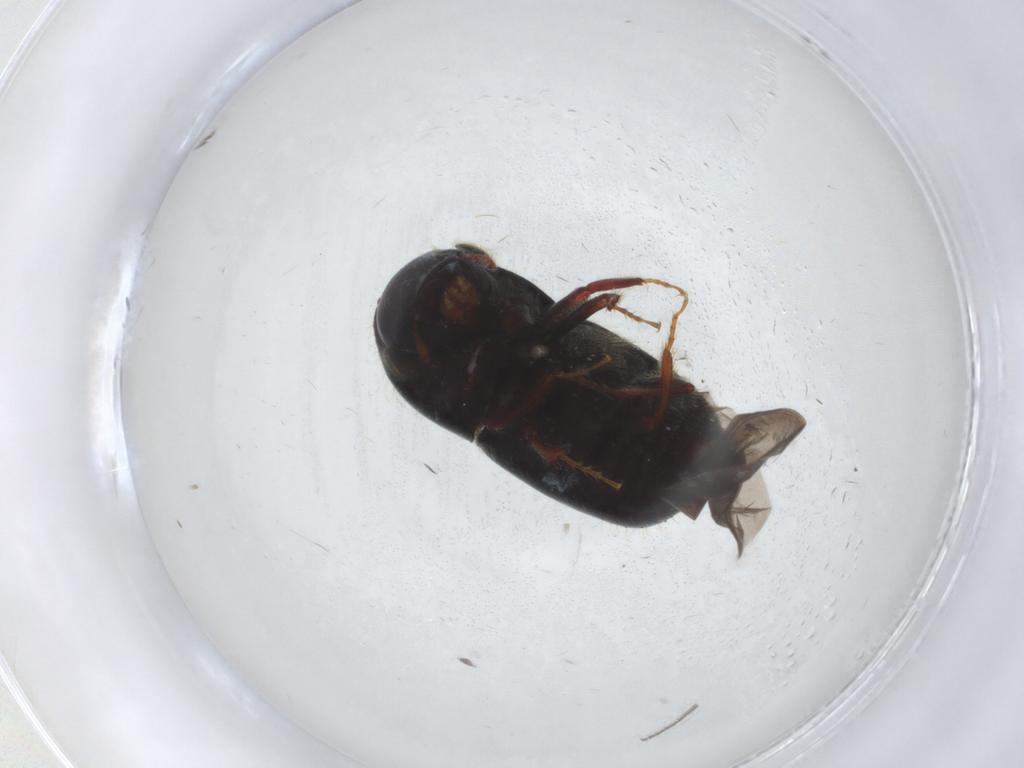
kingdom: Animalia
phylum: Arthropoda
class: Insecta
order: Coleoptera
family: Curculionidae
